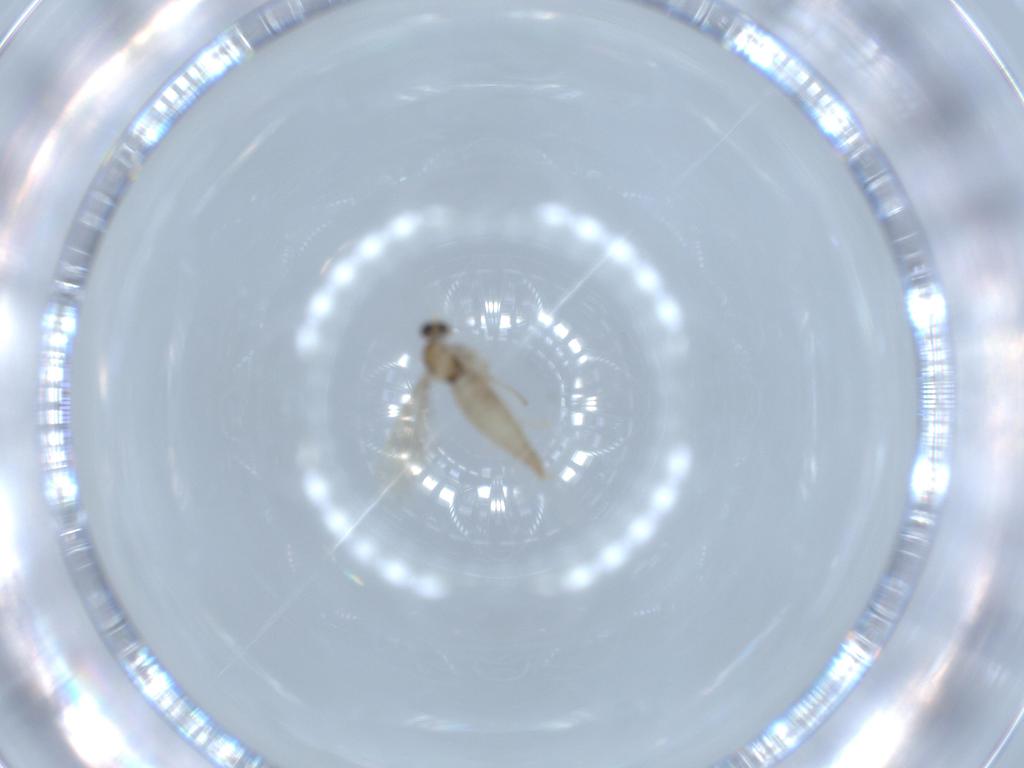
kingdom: Animalia
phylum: Arthropoda
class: Insecta
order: Diptera
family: Cecidomyiidae
